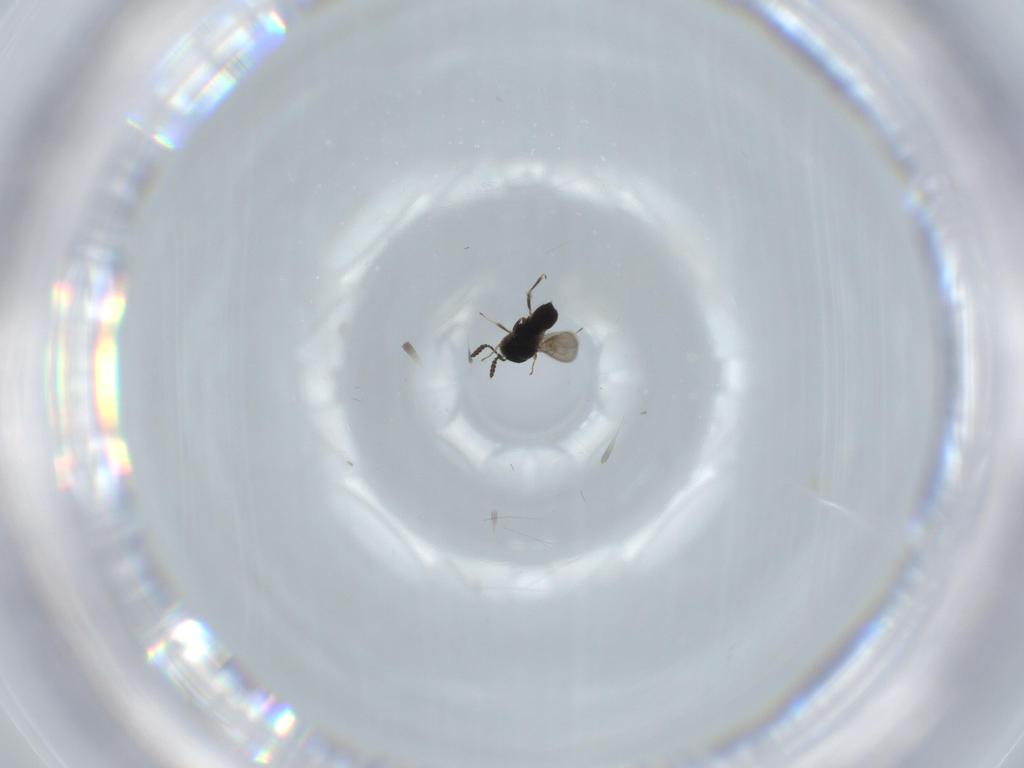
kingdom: Animalia
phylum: Arthropoda
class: Insecta
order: Hymenoptera
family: Scelionidae
